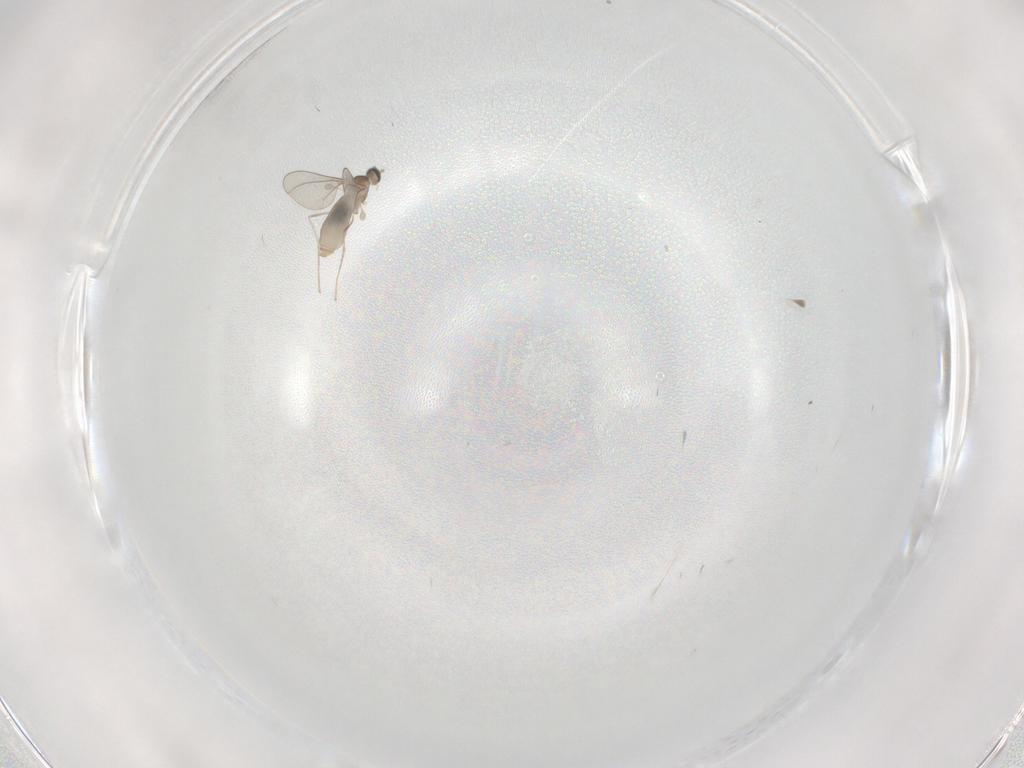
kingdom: Animalia
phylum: Arthropoda
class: Insecta
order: Diptera
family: Cecidomyiidae
